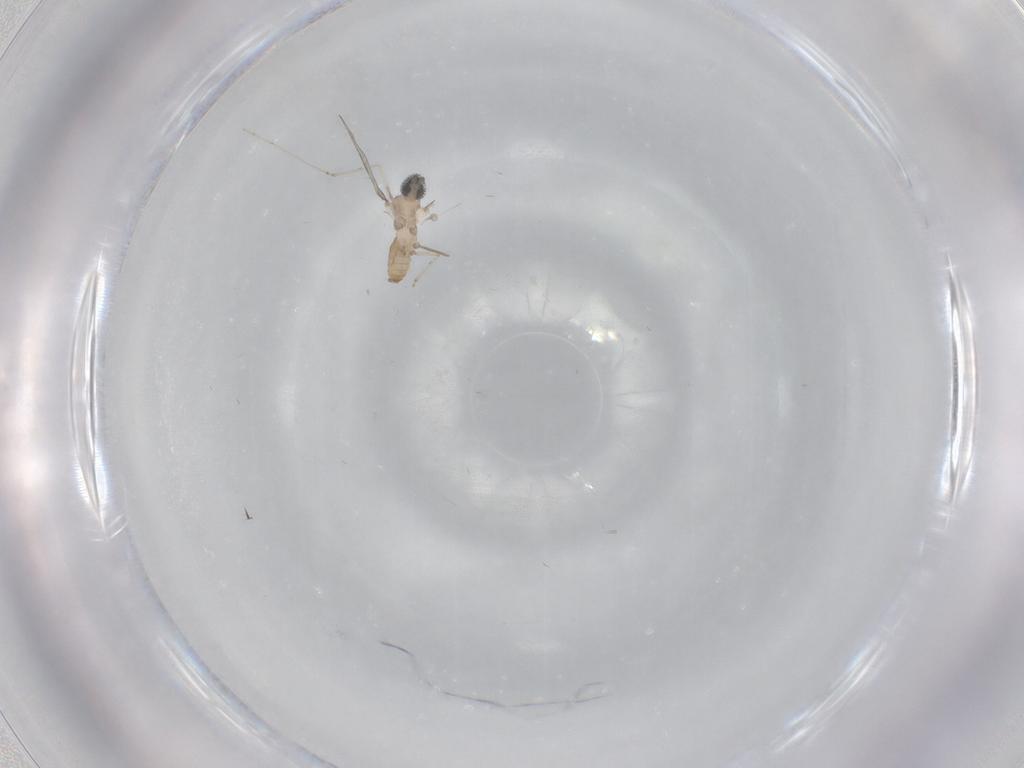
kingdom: Animalia
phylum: Arthropoda
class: Insecta
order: Diptera
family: Cecidomyiidae
